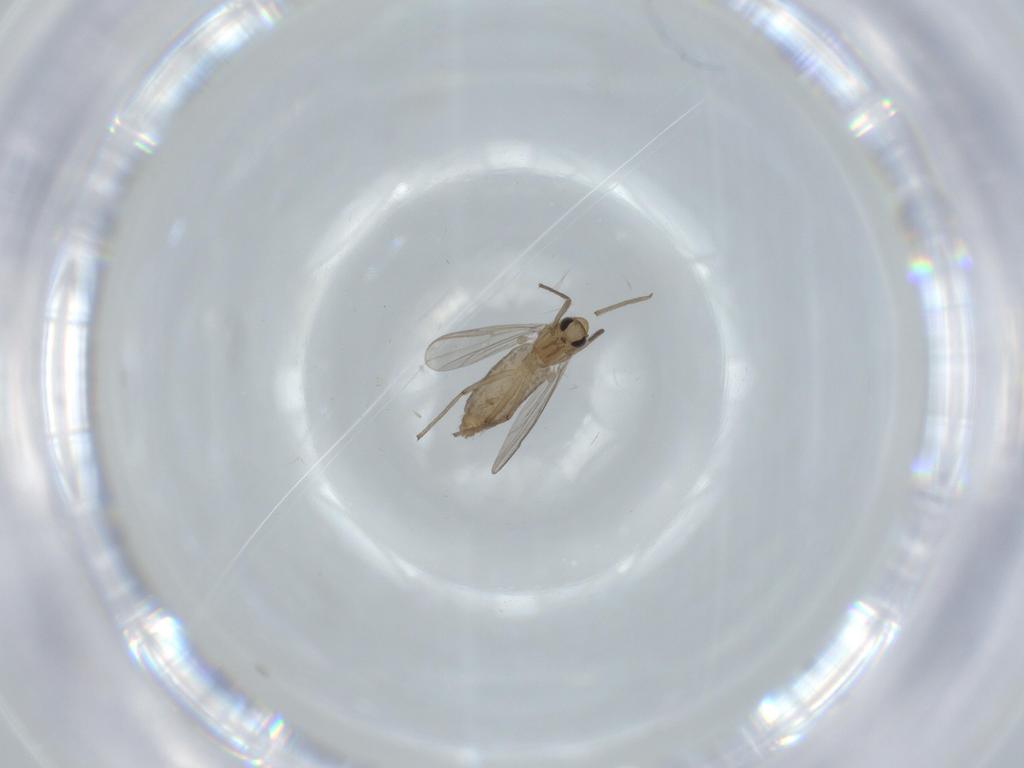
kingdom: Animalia
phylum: Arthropoda
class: Insecta
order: Diptera
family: Chironomidae
